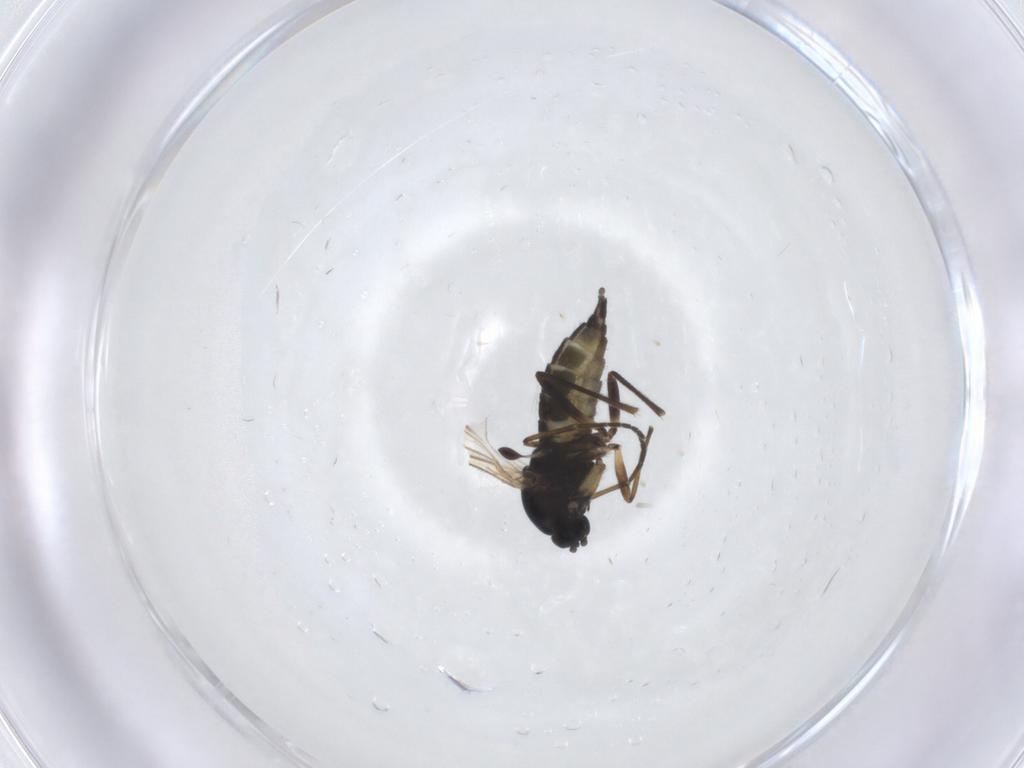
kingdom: Animalia
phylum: Arthropoda
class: Insecta
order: Diptera
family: Sciaridae
